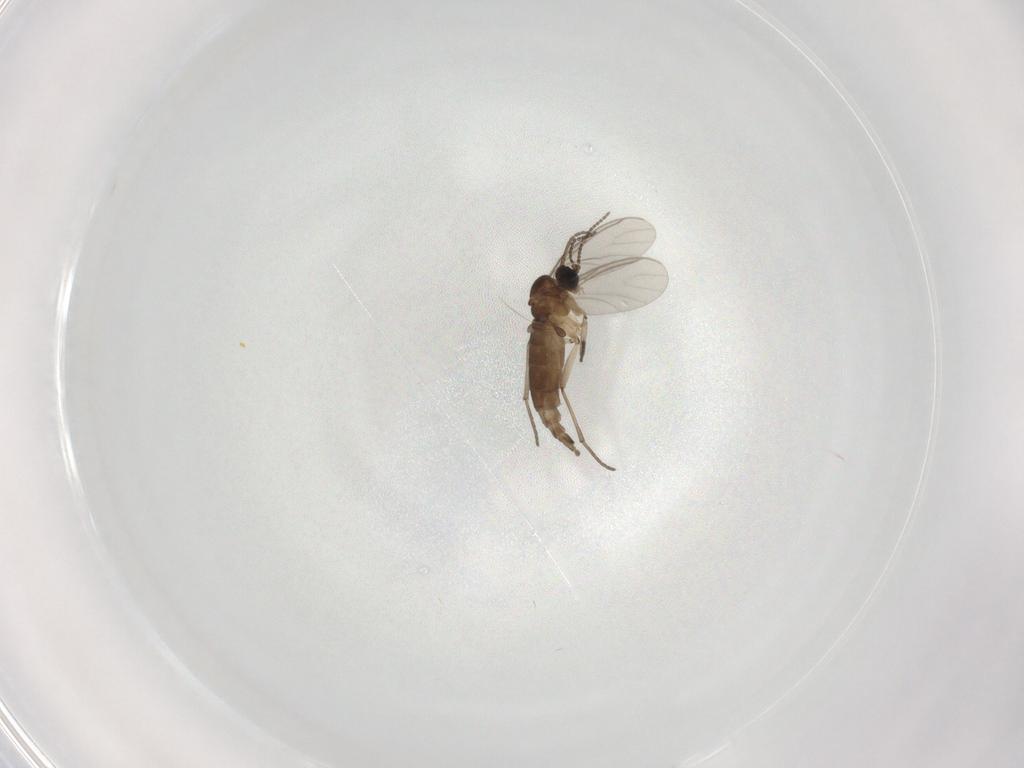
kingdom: Animalia
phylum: Arthropoda
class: Insecta
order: Diptera
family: Sciaridae
